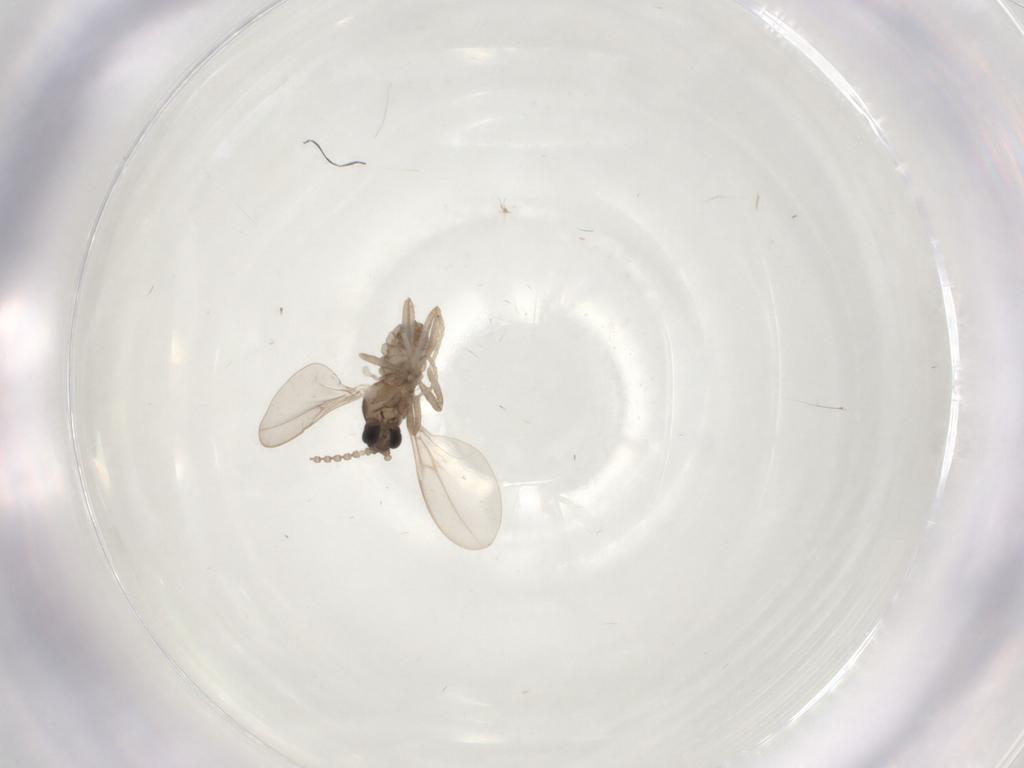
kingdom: Animalia
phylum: Arthropoda
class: Insecta
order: Diptera
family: Cecidomyiidae
